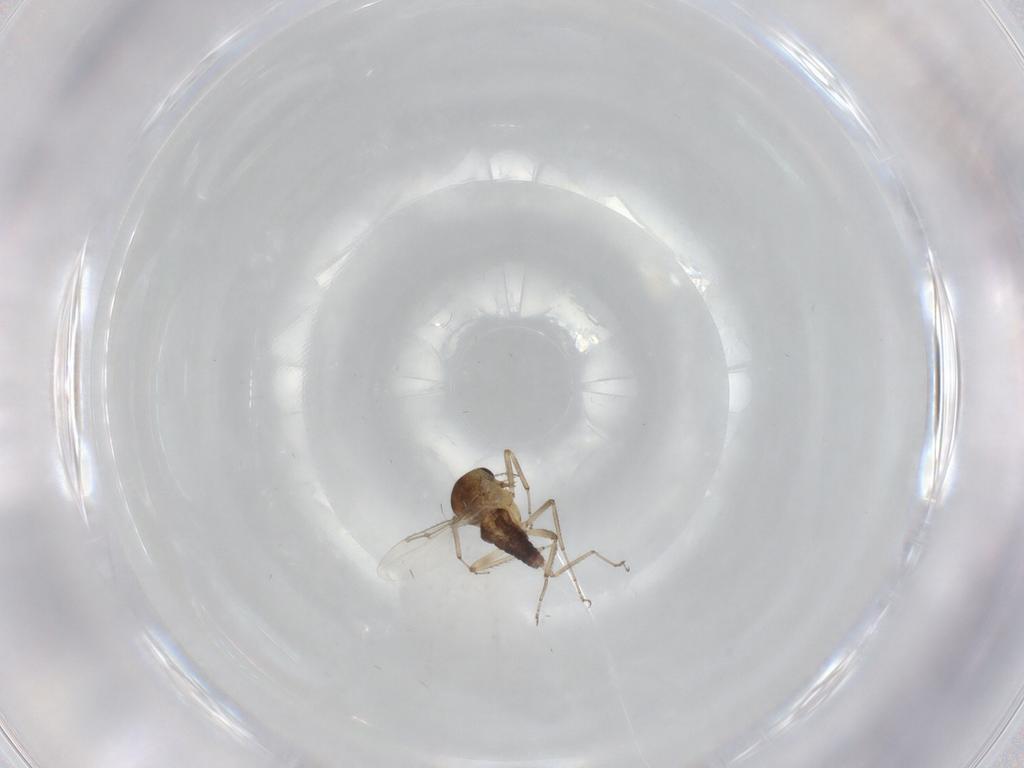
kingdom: Animalia
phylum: Arthropoda
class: Insecta
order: Diptera
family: Ceratopogonidae
